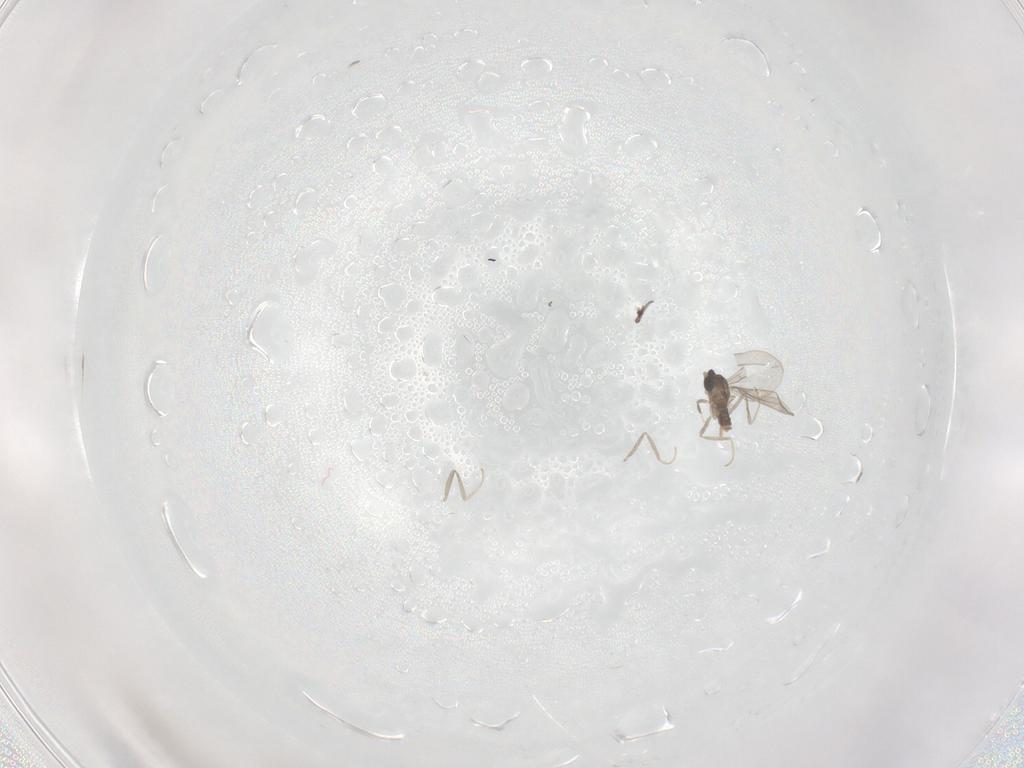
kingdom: Animalia
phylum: Arthropoda
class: Insecta
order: Diptera
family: Cecidomyiidae
